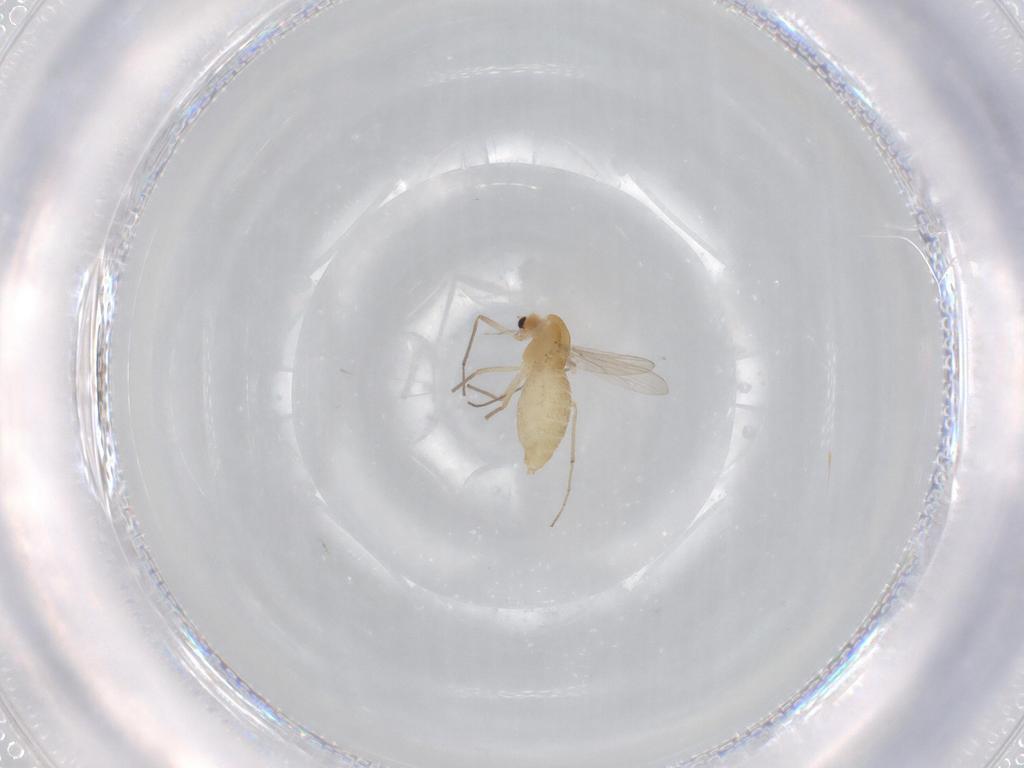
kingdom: Animalia
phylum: Arthropoda
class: Insecta
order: Diptera
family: Chironomidae
